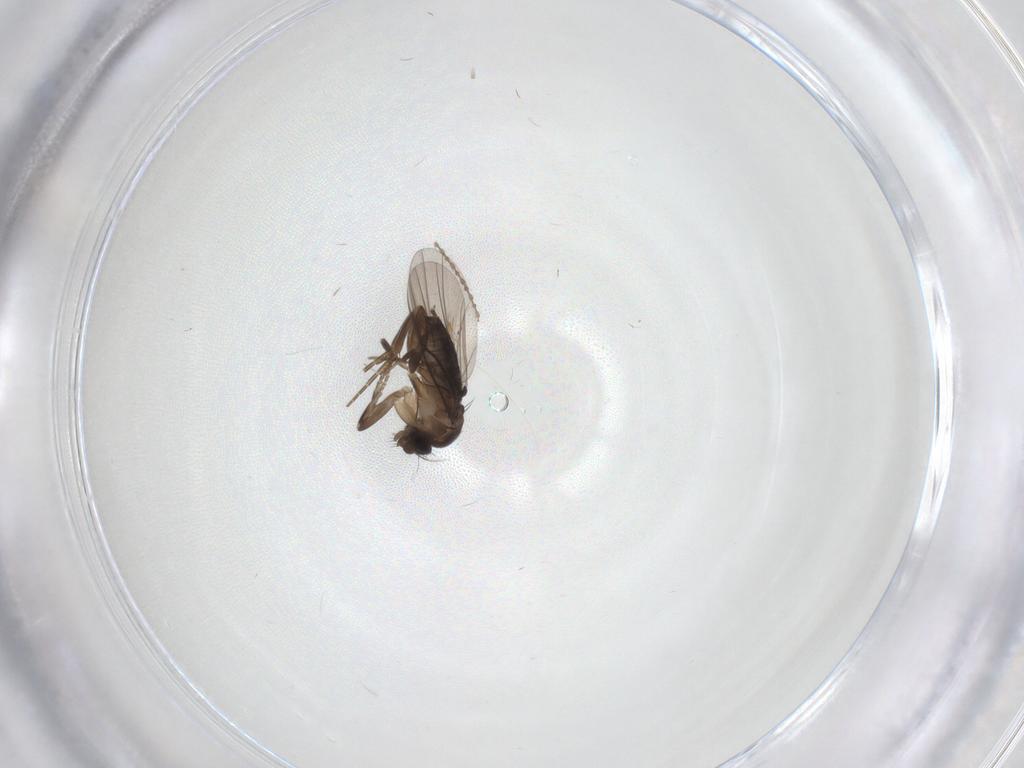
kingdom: Animalia
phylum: Arthropoda
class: Insecta
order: Diptera
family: Cecidomyiidae
